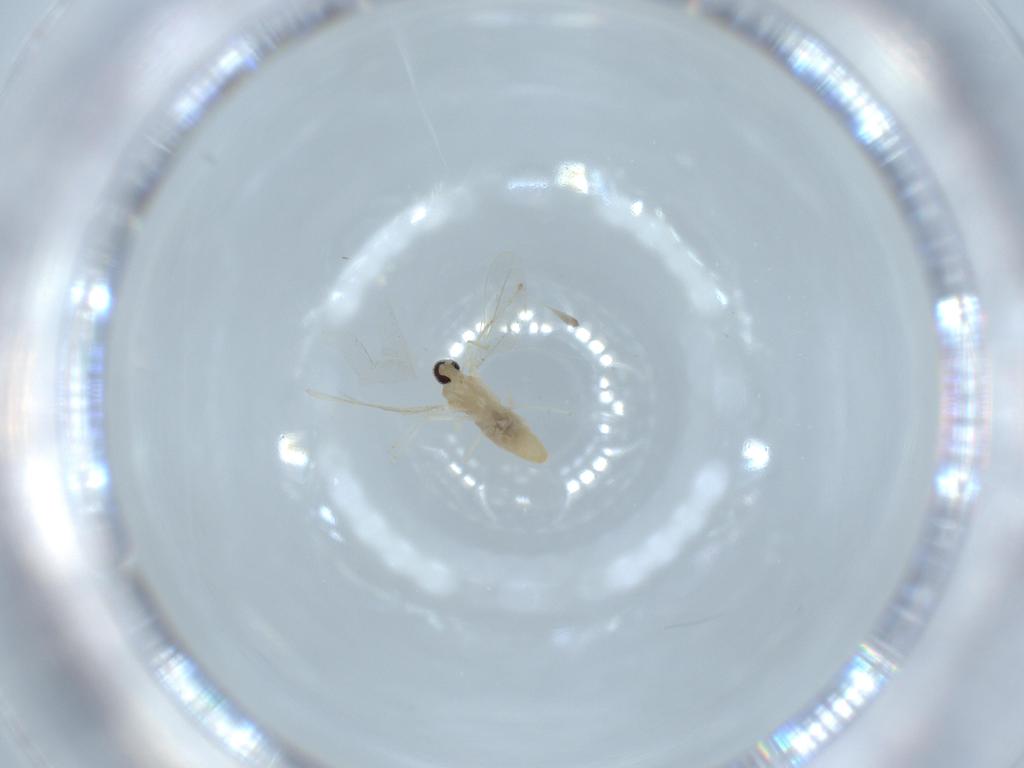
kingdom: Animalia
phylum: Arthropoda
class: Insecta
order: Diptera
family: Cecidomyiidae
